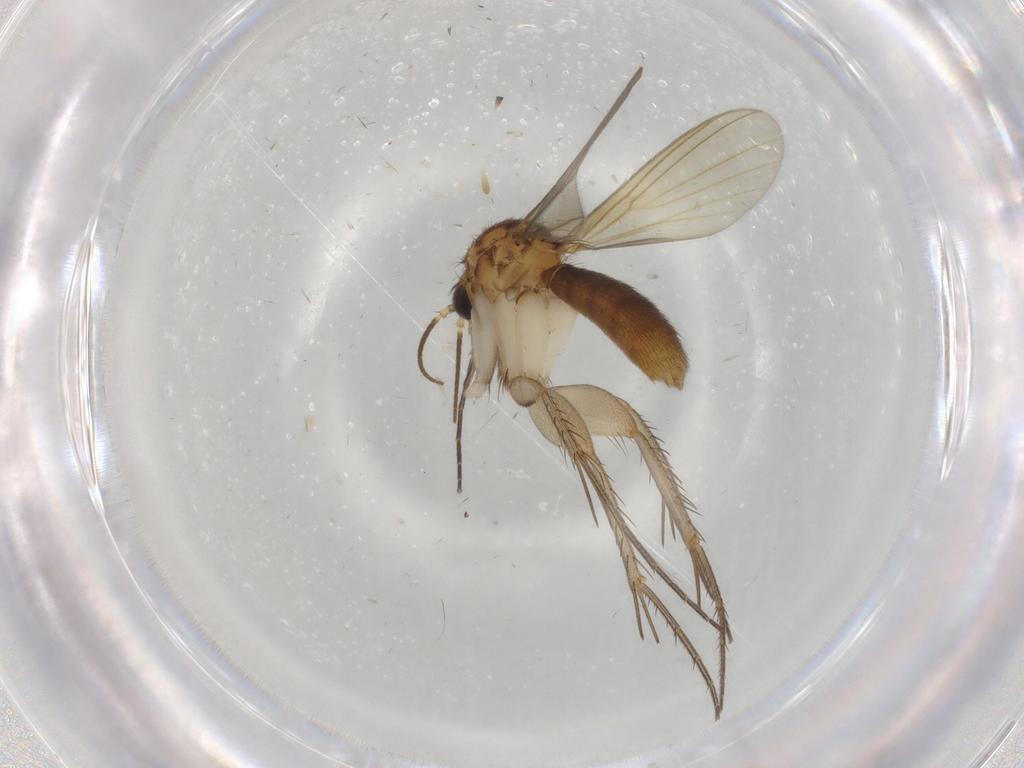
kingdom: Animalia
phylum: Arthropoda
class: Insecta
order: Diptera
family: Mycetophilidae
